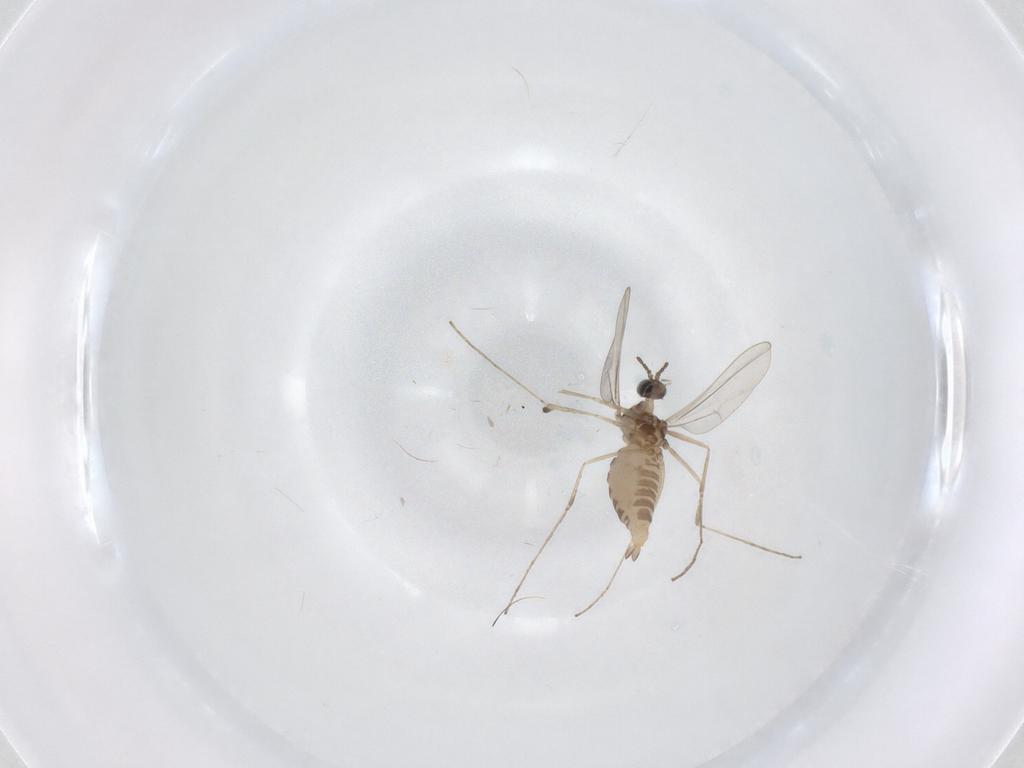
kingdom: Animalia
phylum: Arthropoda
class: Insecta
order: Diptera
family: Cecidomyiidae
